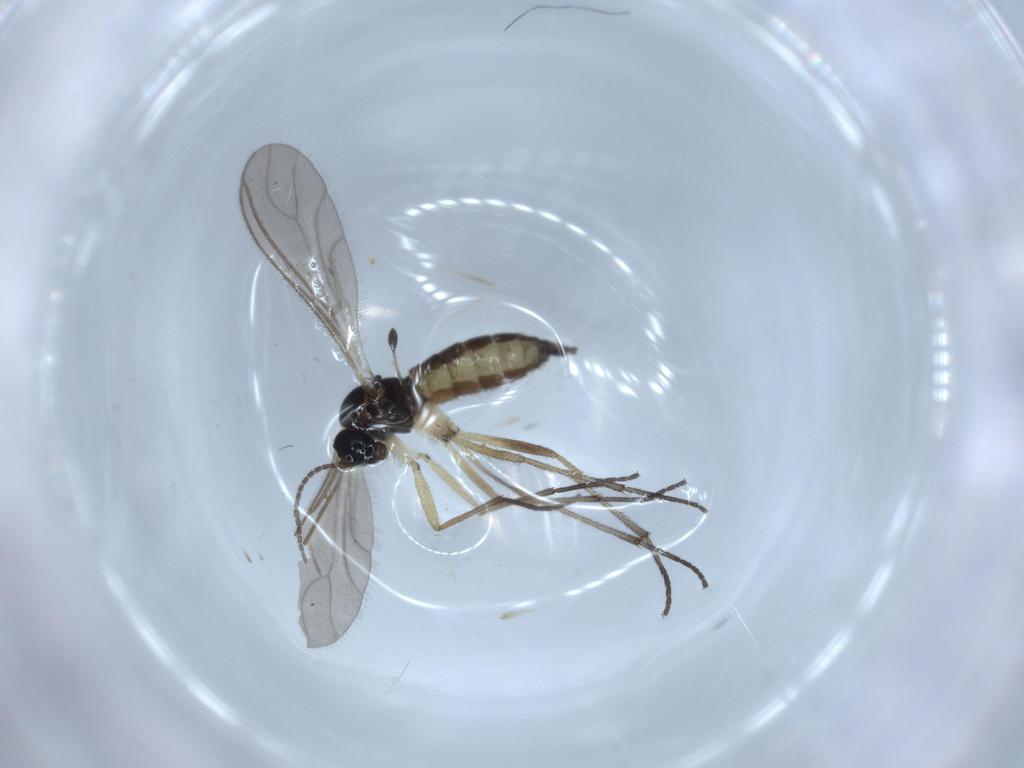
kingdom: Animalia
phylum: Arthropoda
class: Insecta
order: Diptera
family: Sciaridae
